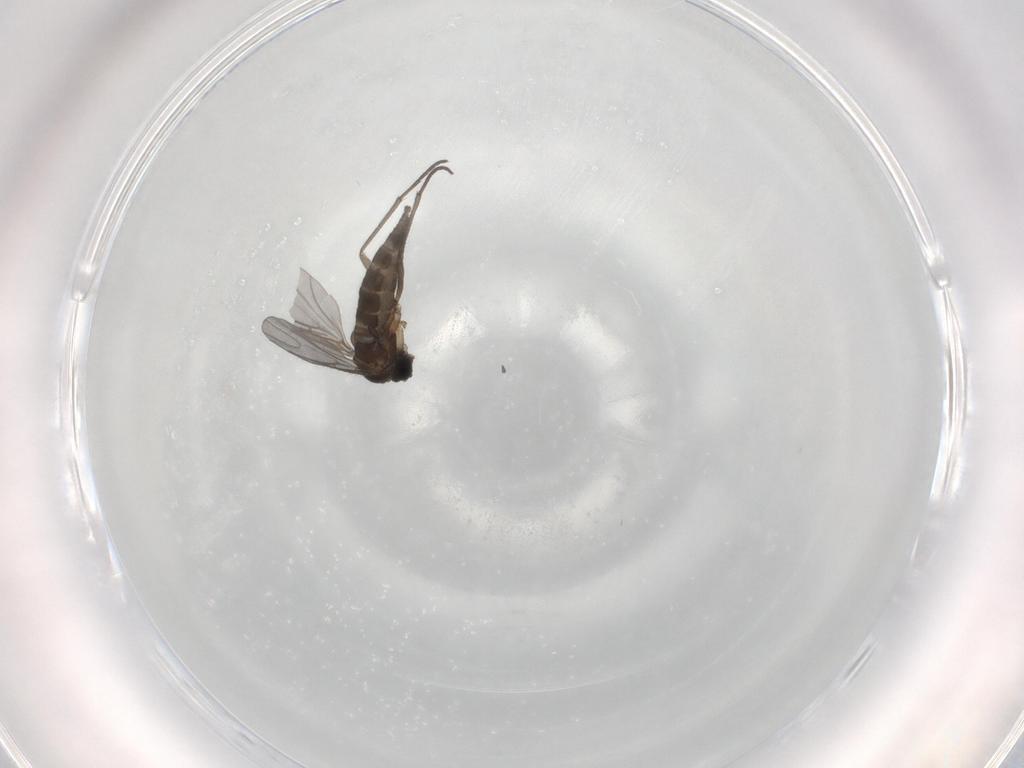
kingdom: Animalia
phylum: Arthropoda
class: Insecta
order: Diptera
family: Sciaridae
